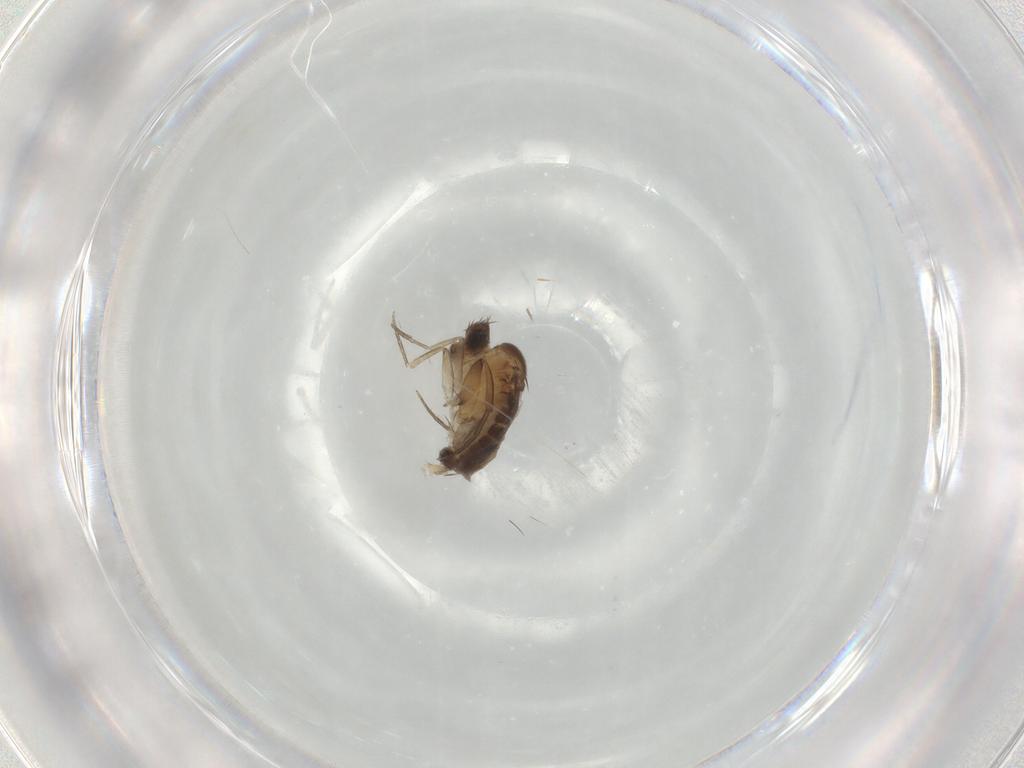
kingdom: Animalia
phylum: Arthropoda
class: Insecta
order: Diptera
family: Phoridae
